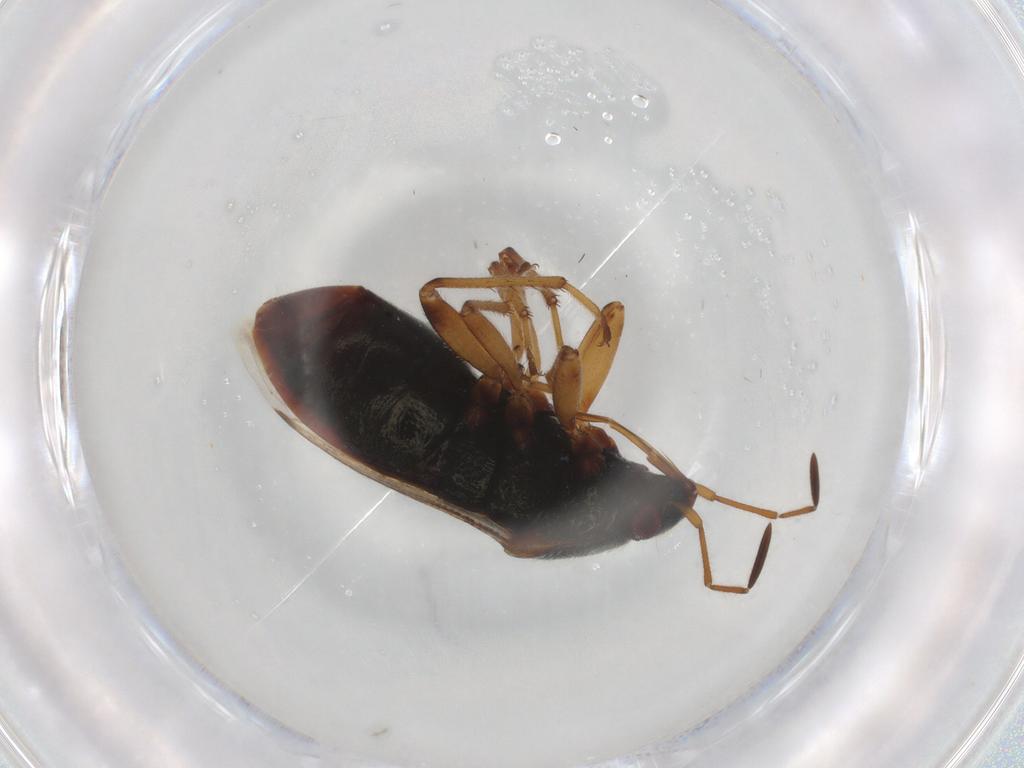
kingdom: Animalia
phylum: Arthropoda
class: Insecta
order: Hemiptera
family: Rhyparochromidae
